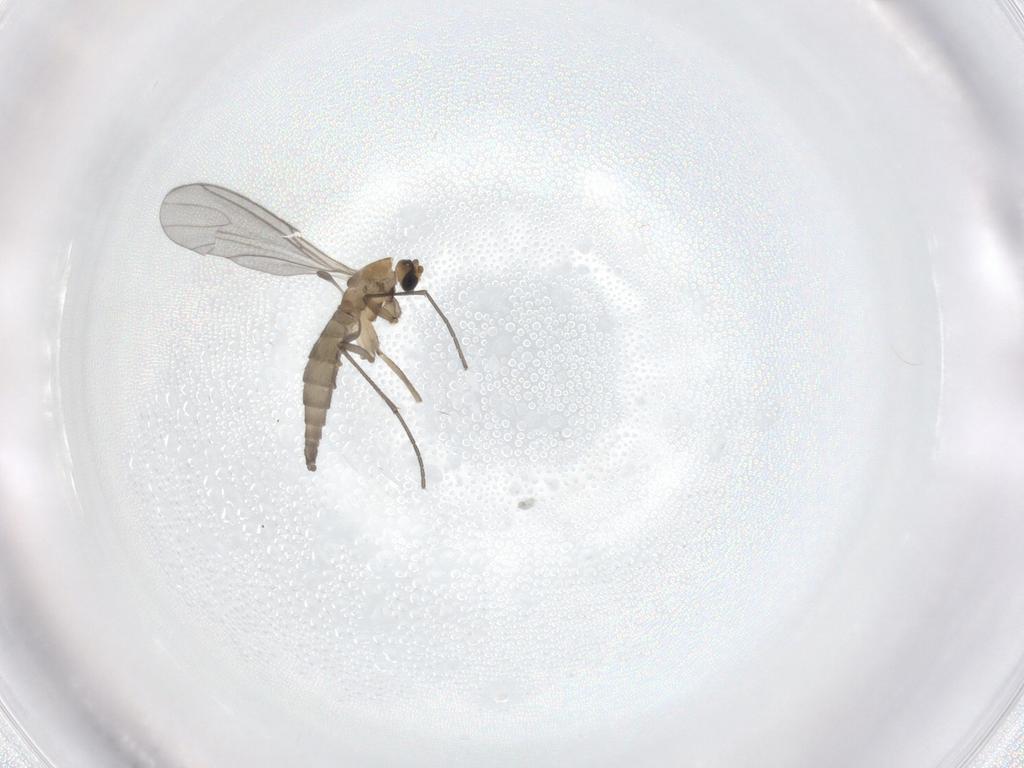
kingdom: Animalia
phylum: Arthropoda
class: Insecta
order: Diptera
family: Sciaridae
